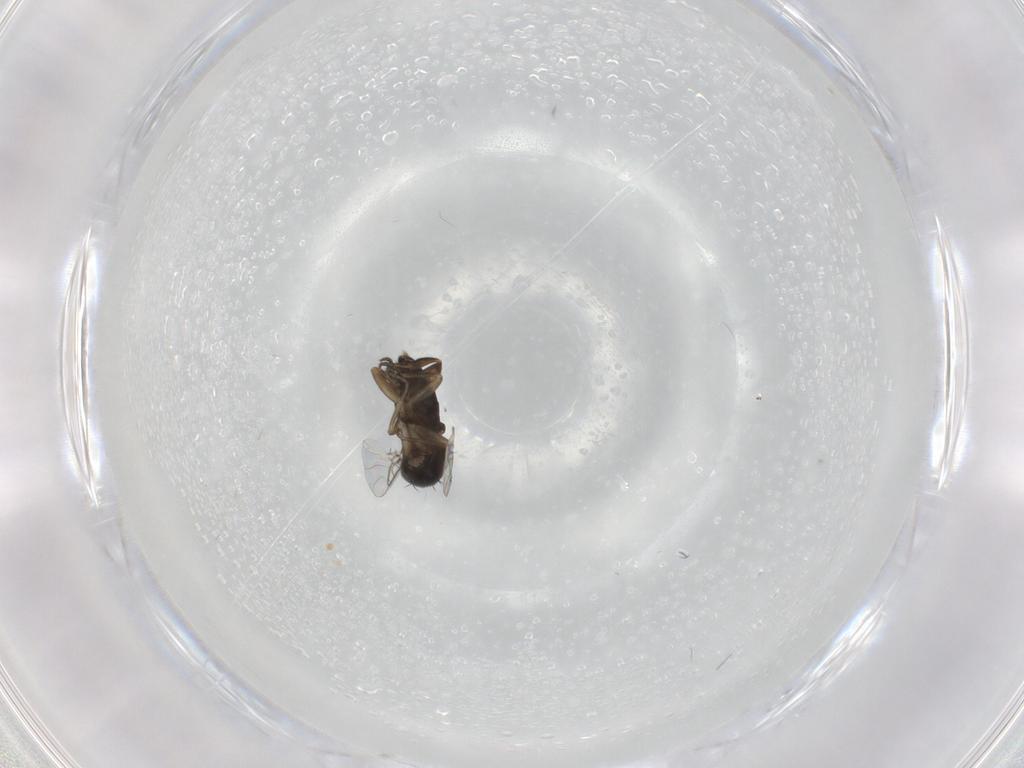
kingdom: Animalia
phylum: Arthropoda
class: Insecta
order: Diptera
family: Phoridae
